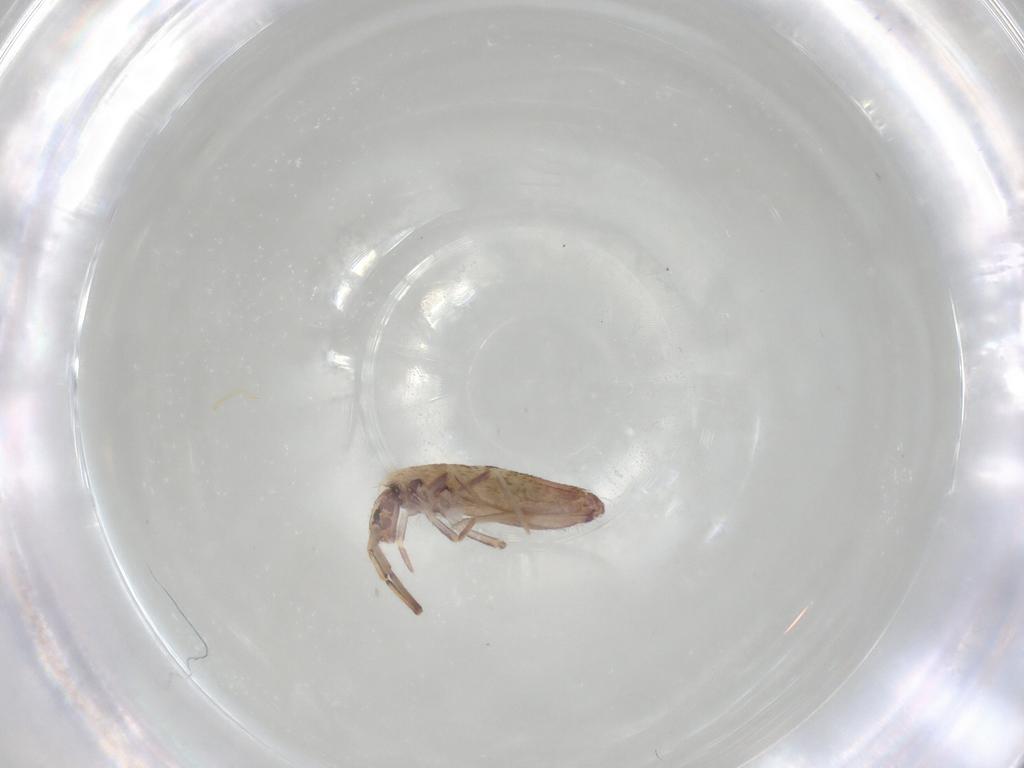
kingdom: Animalia
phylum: Arthropoda
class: Collembola
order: Entomobryomorpha
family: Entomobryidae
